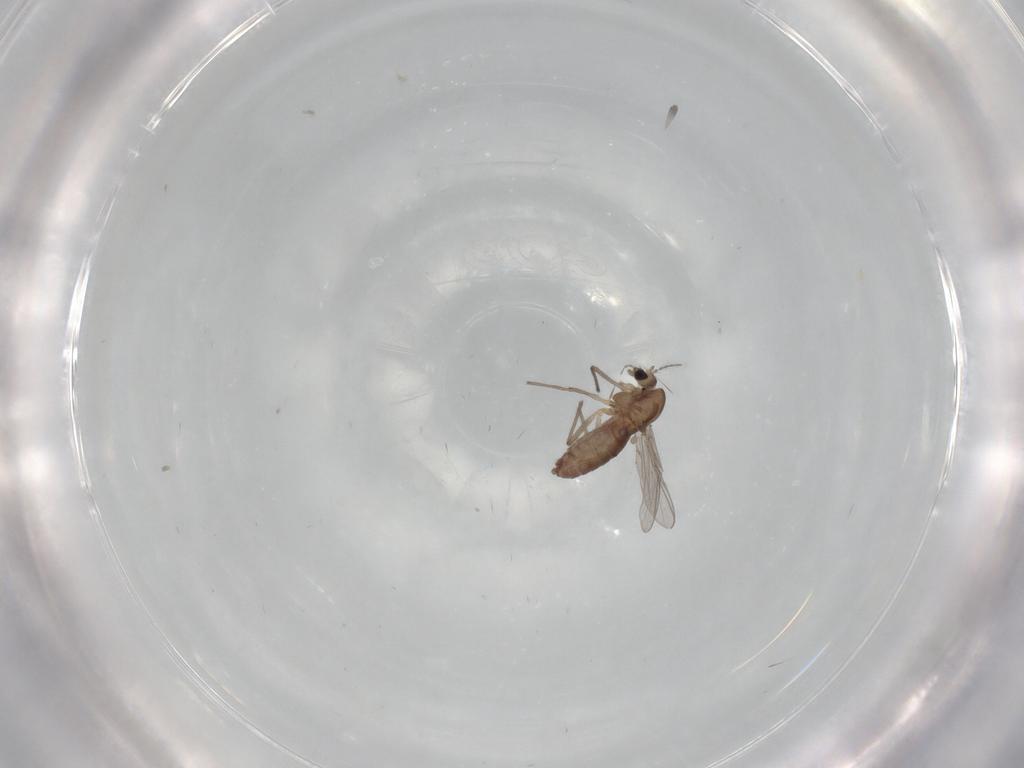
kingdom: Animalia
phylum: Arthropoda
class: Insecta
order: Diptera
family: Chironomidae
